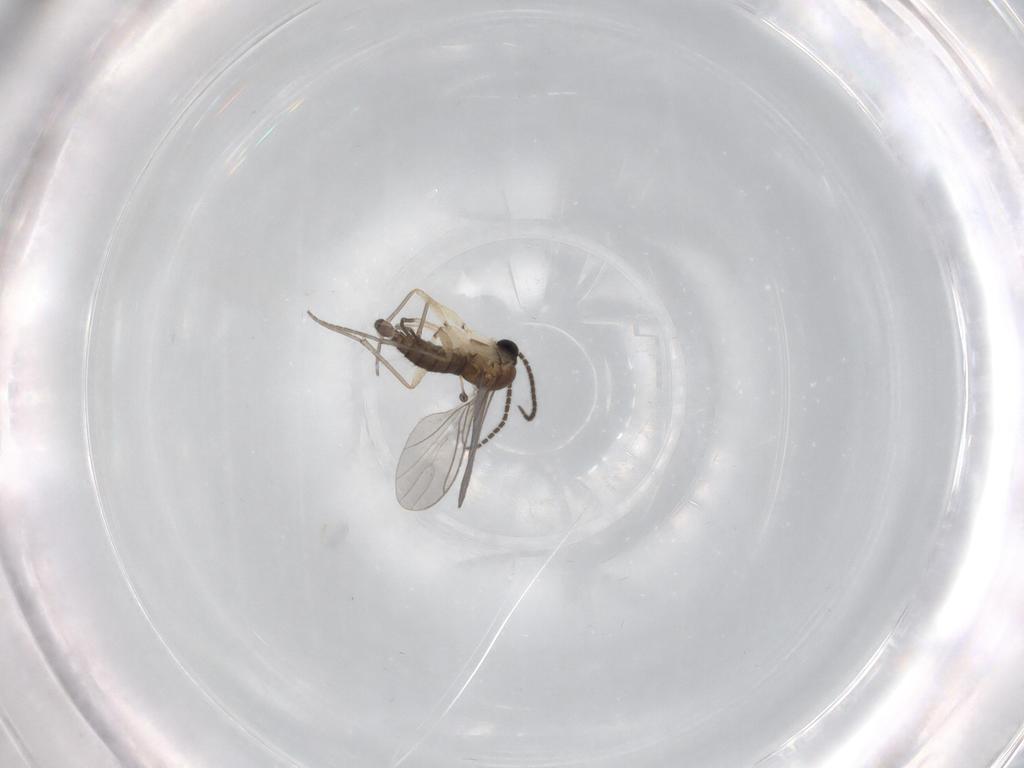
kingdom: Animalia
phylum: Arthropoda
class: Insecta
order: Diptera
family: Sciaridae
